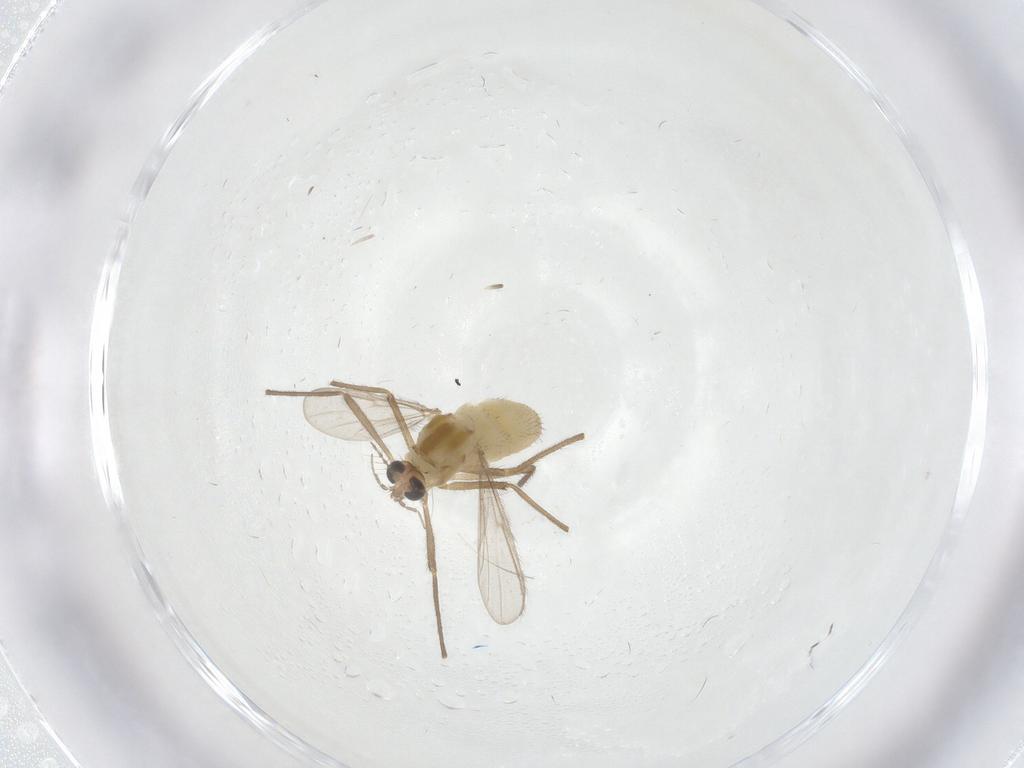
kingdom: Animalia
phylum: Arthropoda
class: Insecta
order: Diptera
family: Chironomidae
